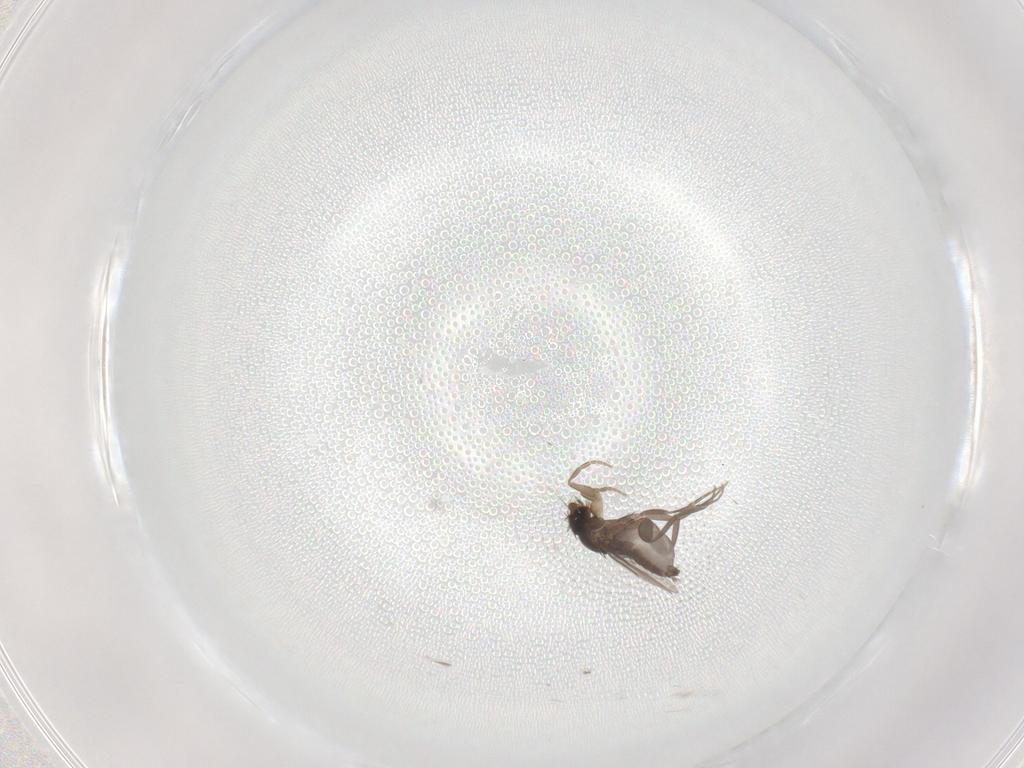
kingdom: Animalia
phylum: Arthropoda
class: Insecta
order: Diptera
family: Phoridae
